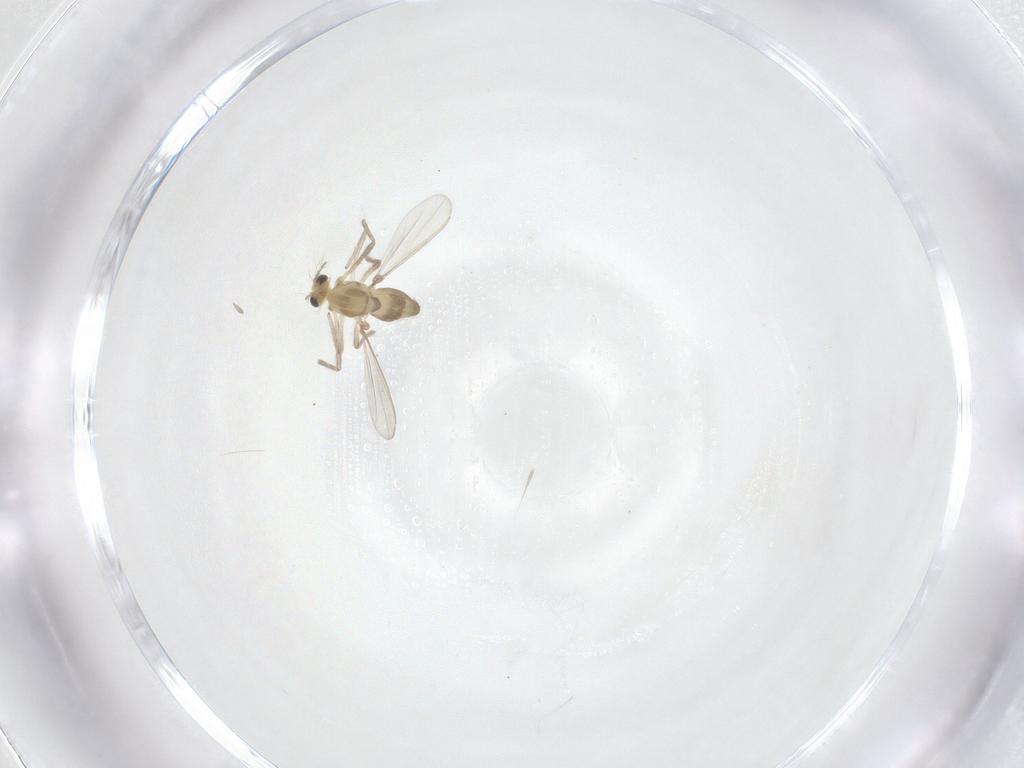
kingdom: Animalia
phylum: Arthropoda
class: Insecta
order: Diptera
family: Chironomidae
